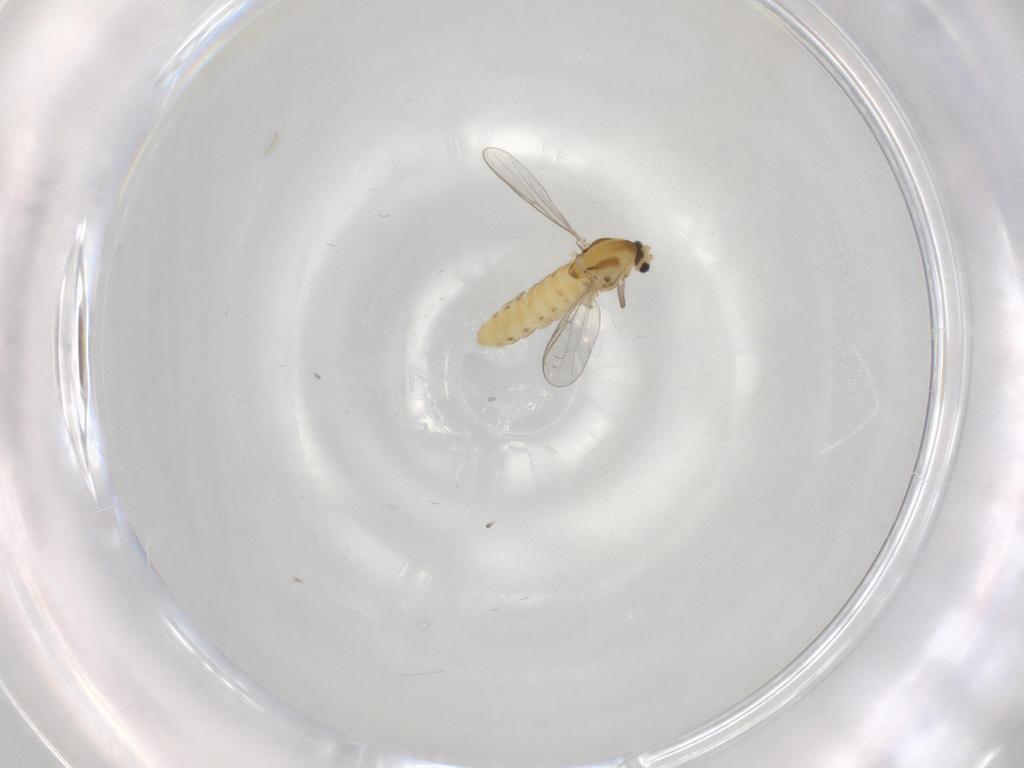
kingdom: Animalia
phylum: Arthropoda
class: Insecta
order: Diptera
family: Chironomidae
